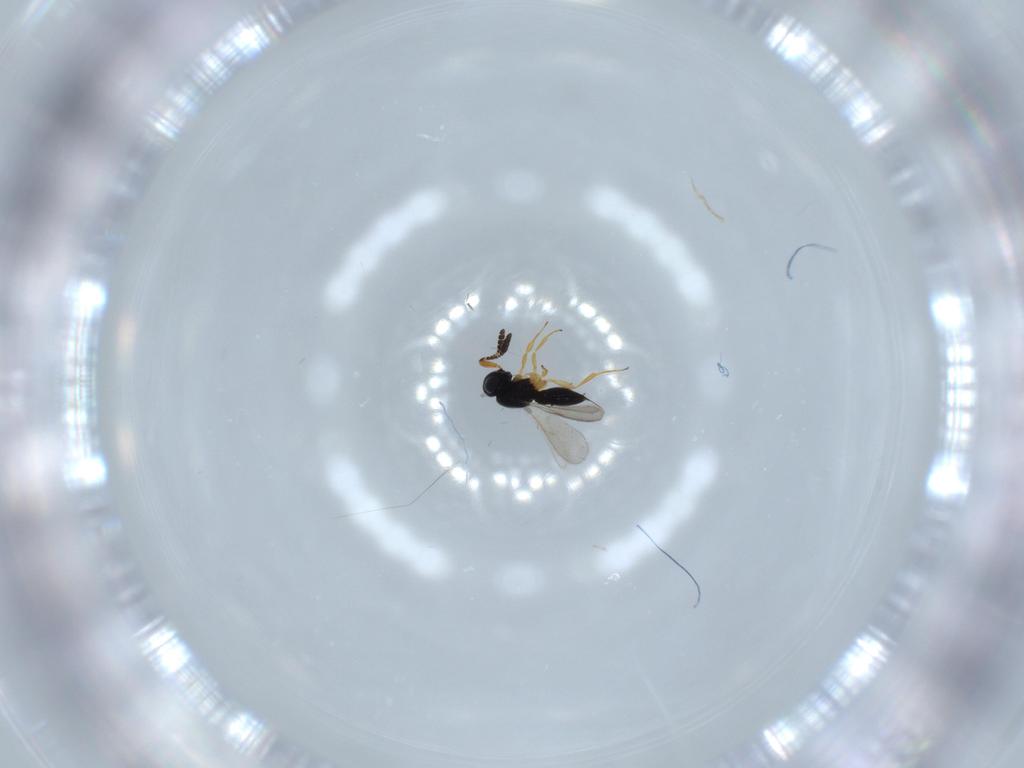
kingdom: Animalia
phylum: Arthropoda
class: Insecta
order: Hymenoptera
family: Scelionidae
